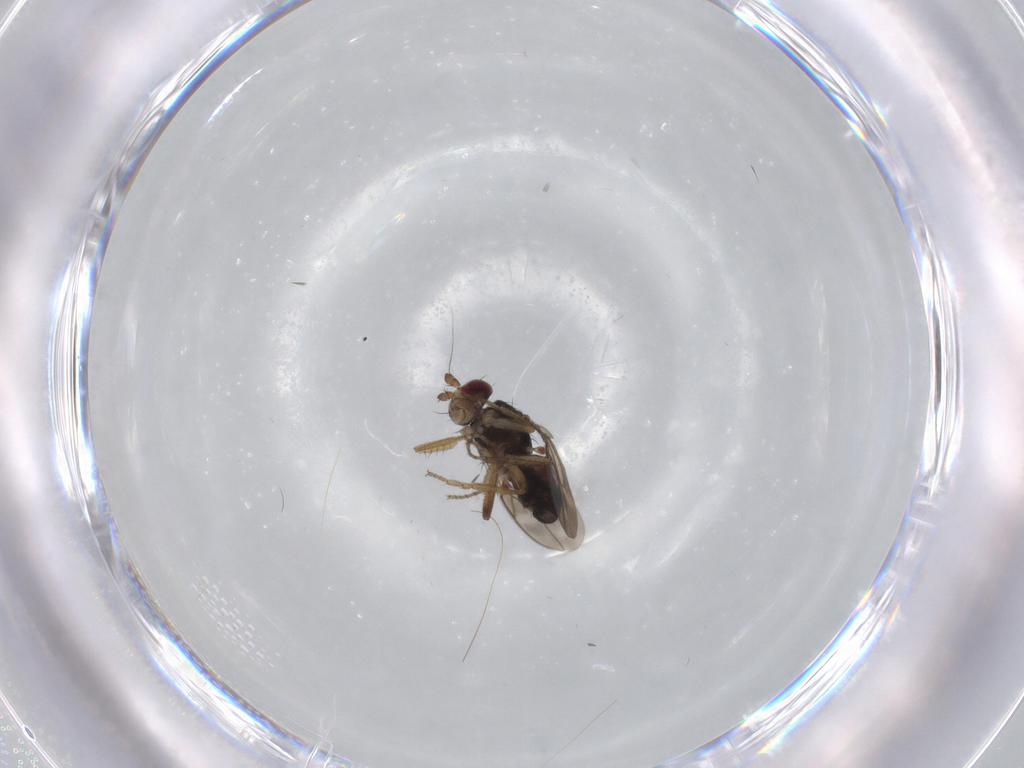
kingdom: Animalia
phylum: Arthropoda
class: Insecta
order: Diptera
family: Sphaeroceridae
